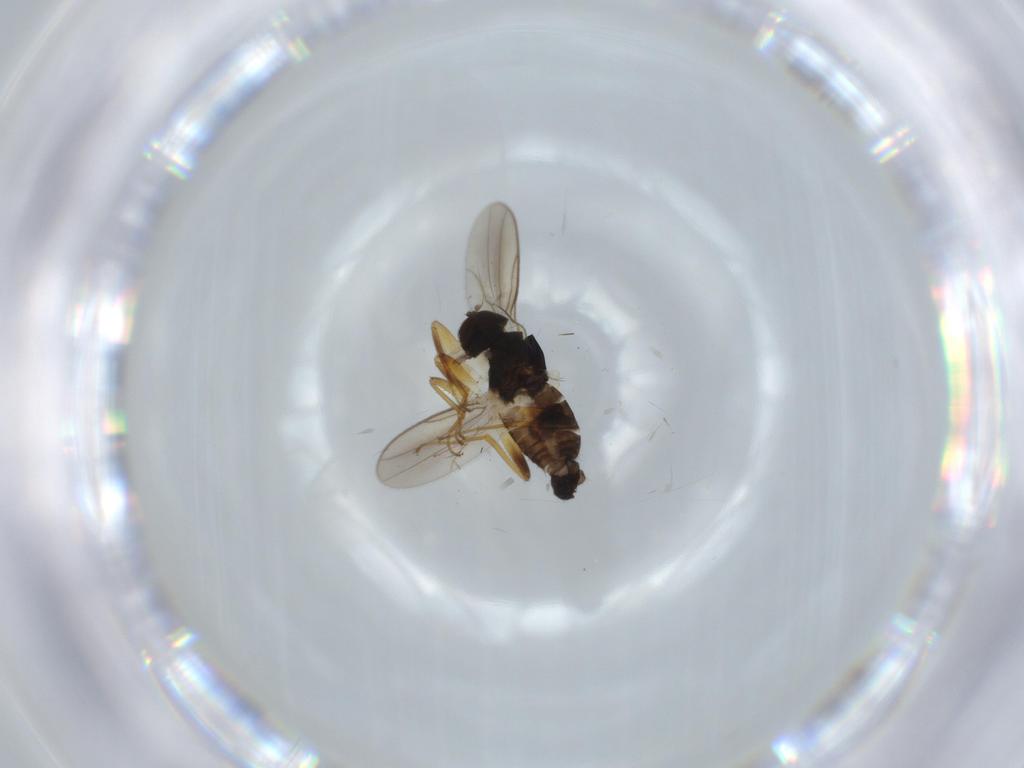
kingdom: Animalia
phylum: Arthropoda
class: Insecta
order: Diptera
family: Hybotidae
